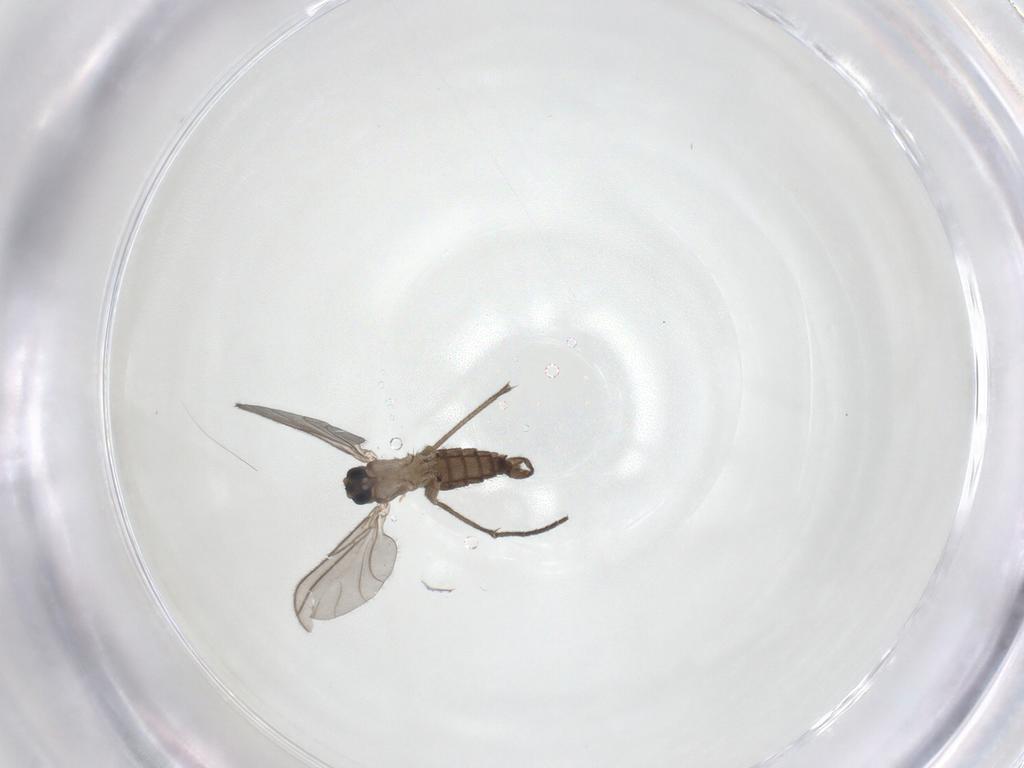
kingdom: Animalia
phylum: Arthropoda
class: Insecta
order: Diptera
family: Sciaridae
